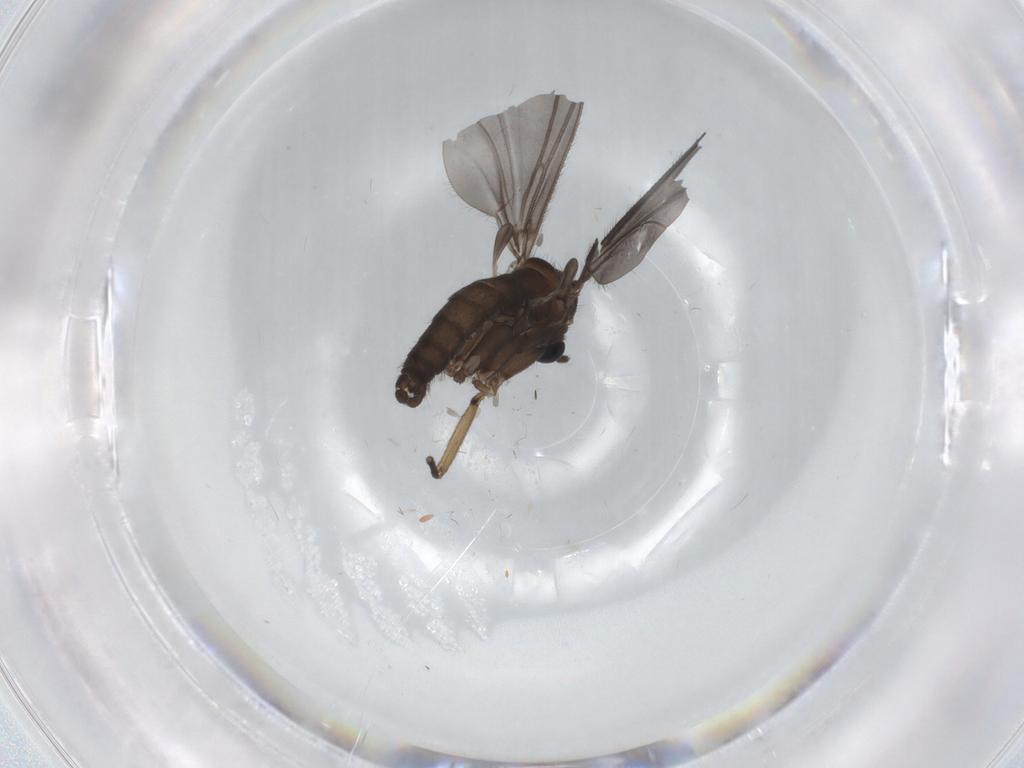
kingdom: Animalia
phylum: Arthropoda
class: Insecta
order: Diptera
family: Sciaridae
